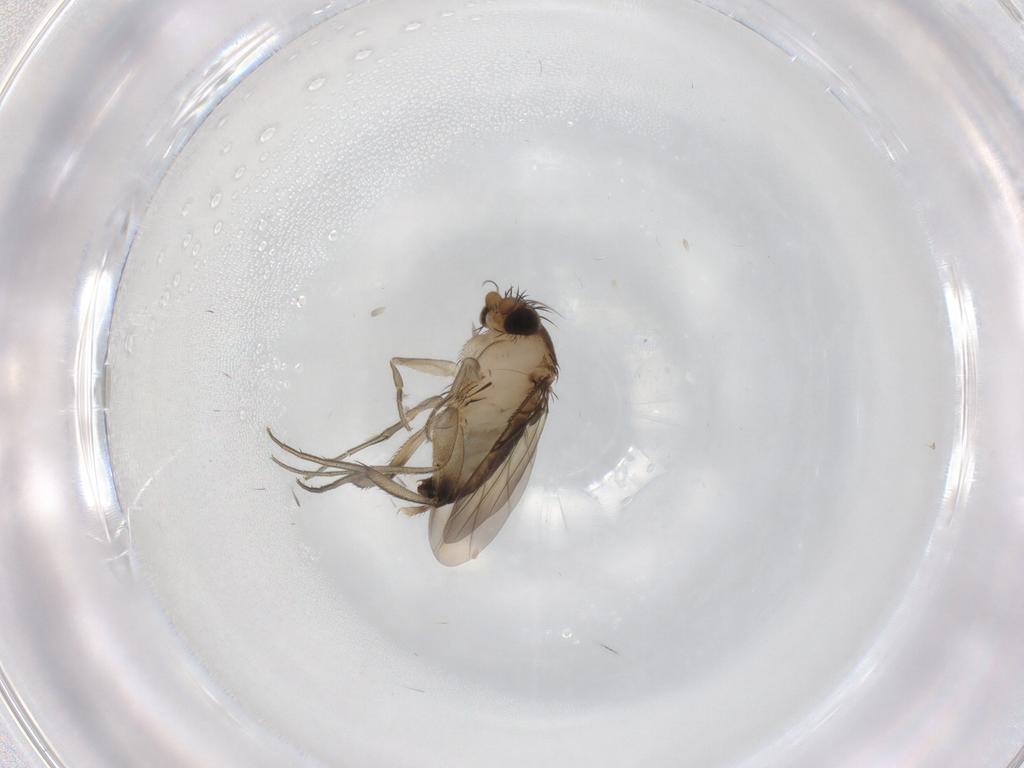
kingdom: Animalia
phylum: Arthropoda
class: Insecta
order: Diptera
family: Phoridae
